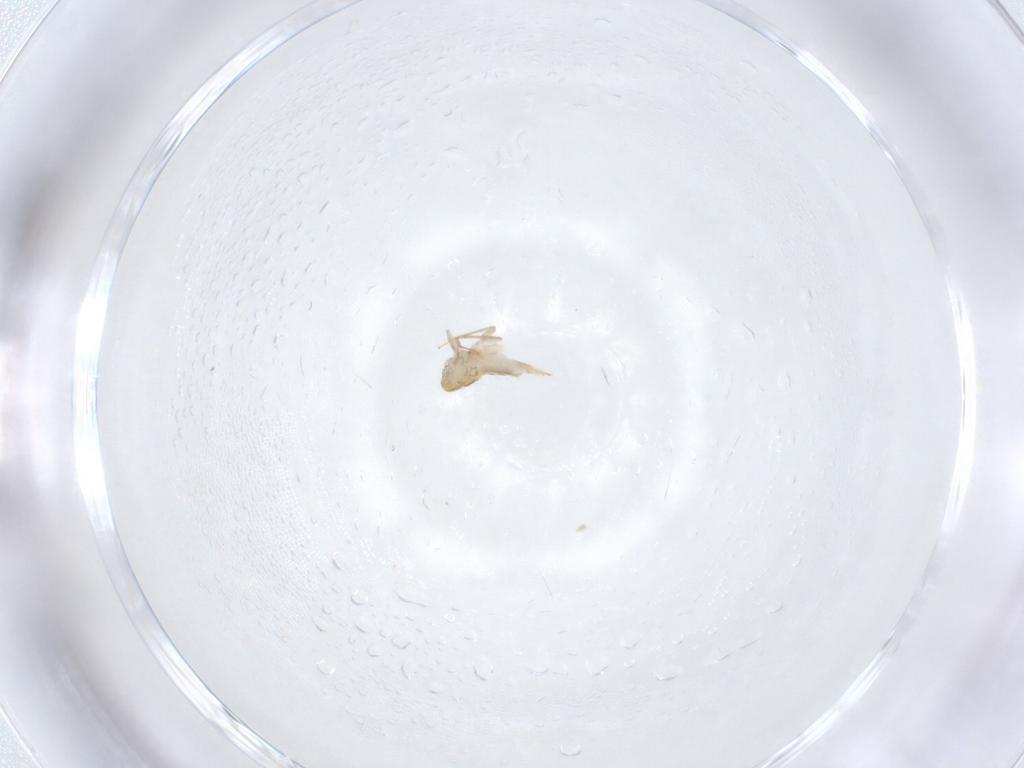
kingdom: Animalia
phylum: Arthropoda
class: Insecta
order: Hymenoptera
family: Aphelinidae
